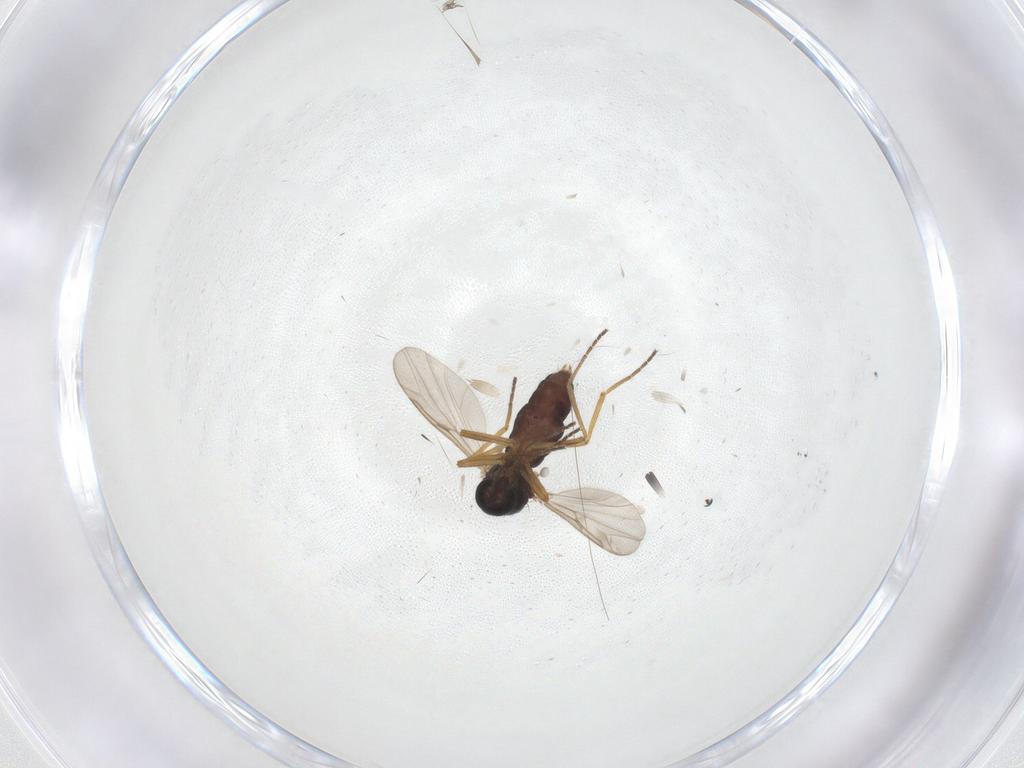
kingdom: Animalia
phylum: Arthropoda
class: Insecta
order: Diptera
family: Ceratopogonidae
